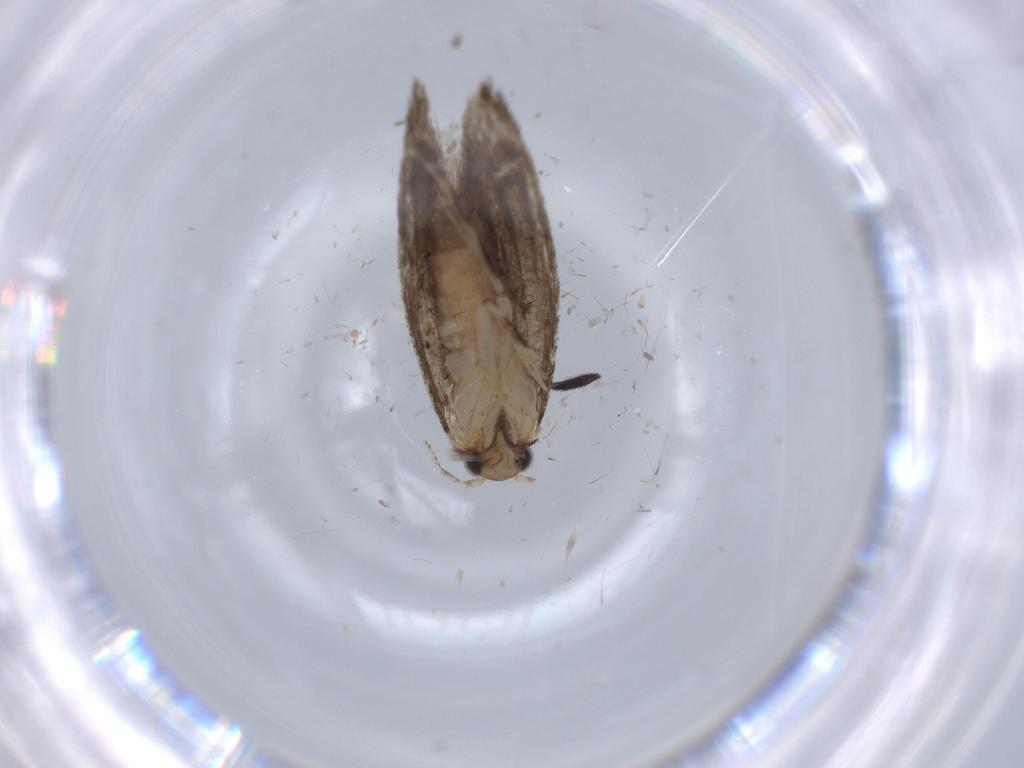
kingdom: Animalia
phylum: Arthropoda
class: Insecta
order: Lepidoptera
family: Tineidae
